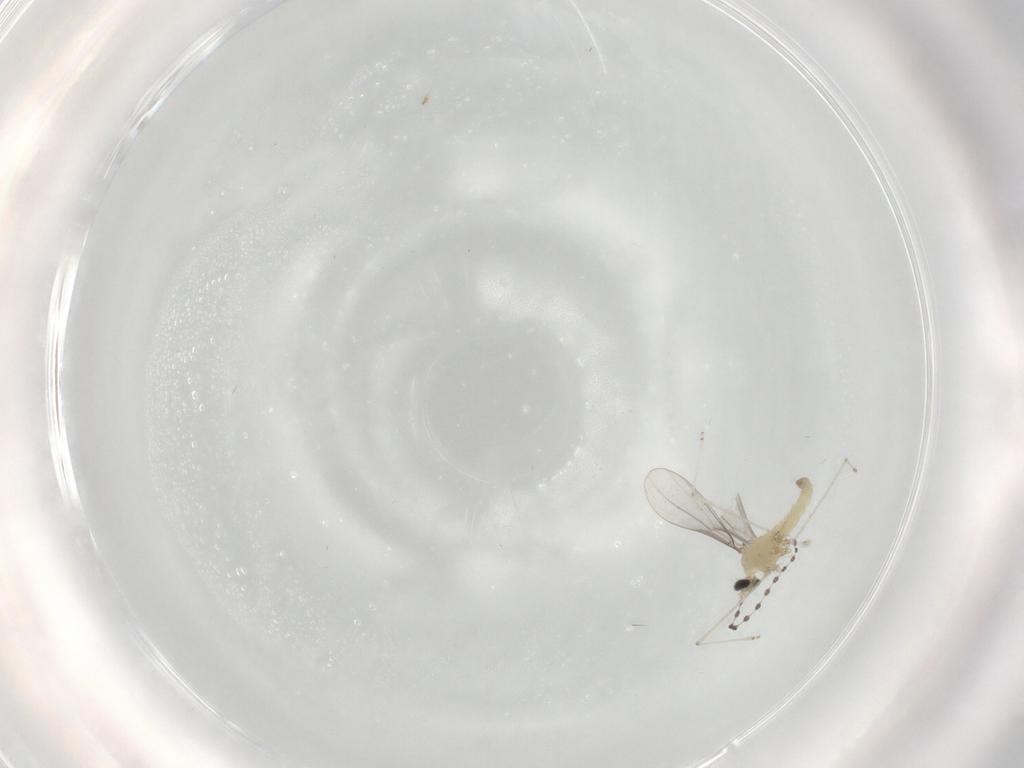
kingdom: Animalia
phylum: Arthropoda
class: Insecta
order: Diptera
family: Cecidomyiidae
